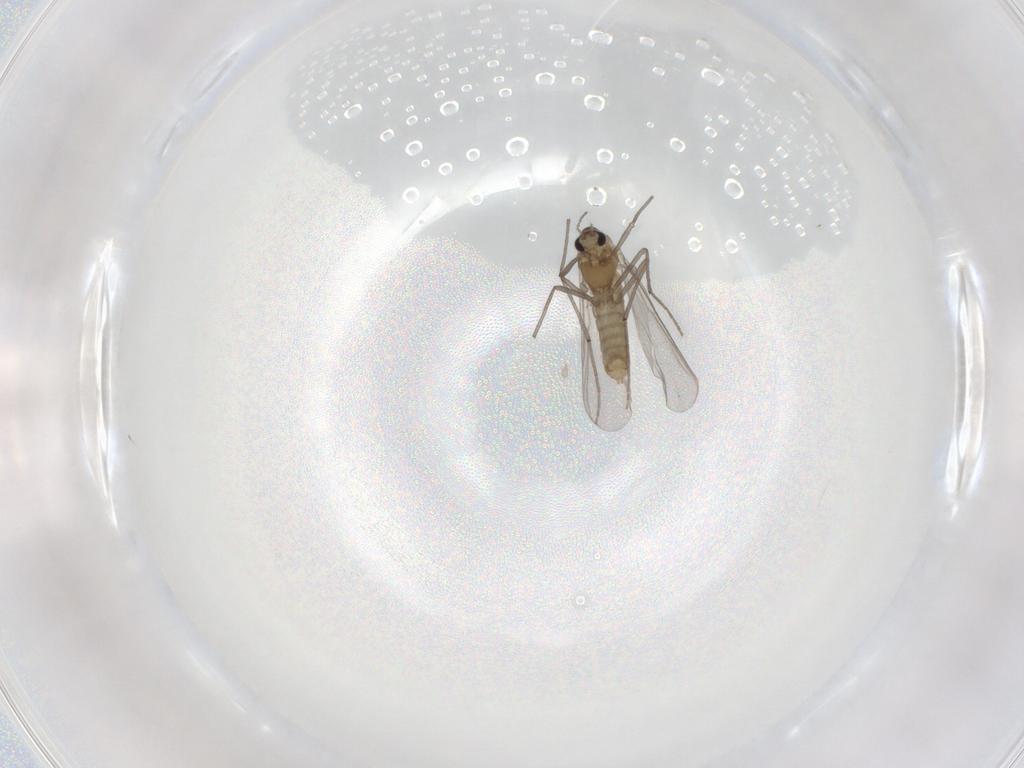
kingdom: Animalia
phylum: Arthropoda
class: Insecta
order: Diptera
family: Chironomidae
